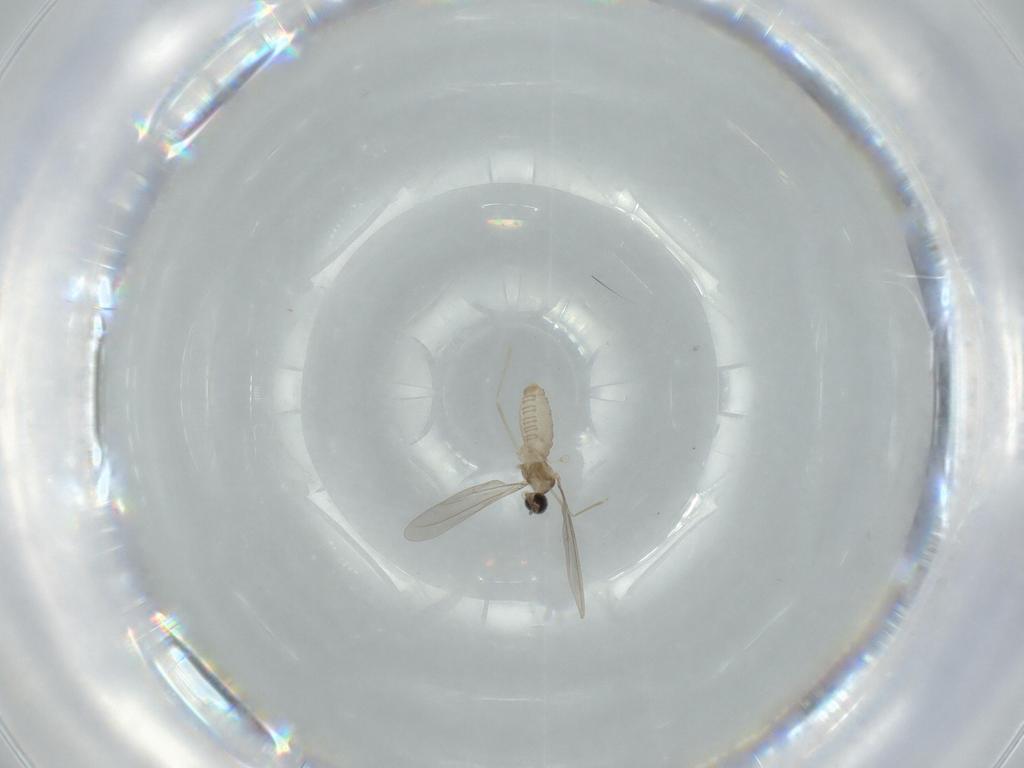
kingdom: Animalia
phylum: Arthropoda
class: Insecta
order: Diptera
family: Cecidomyiidae
